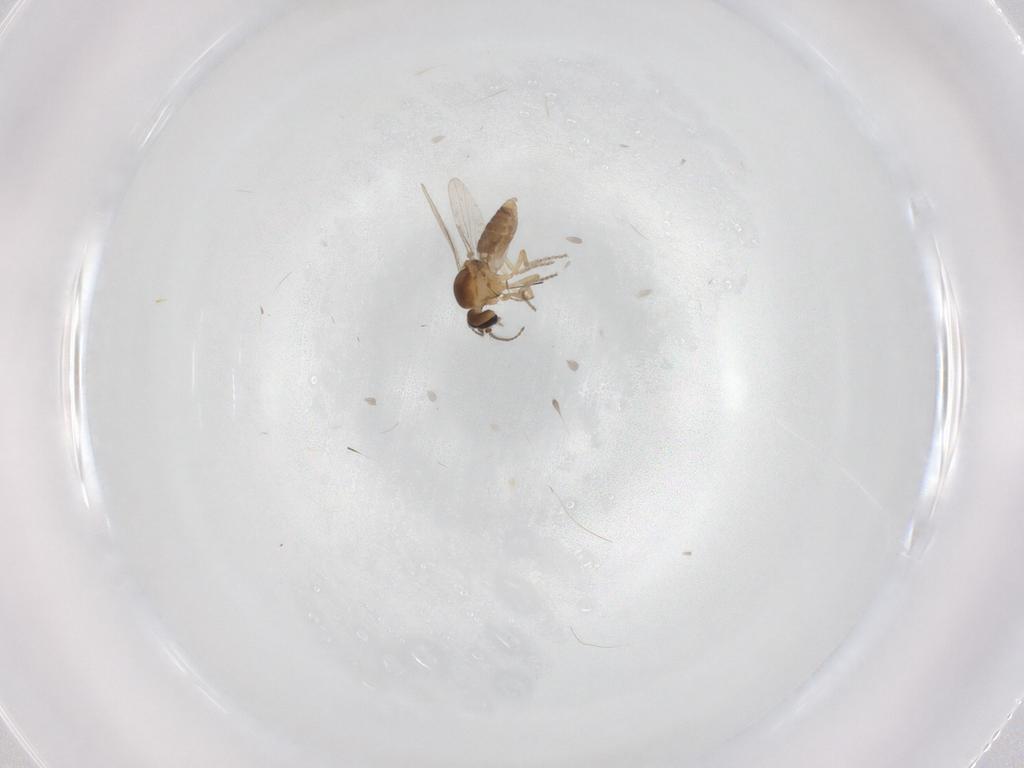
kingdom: Animalia
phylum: Arthropoda
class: Insecta
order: Diptera
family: Ceratopogonidae
